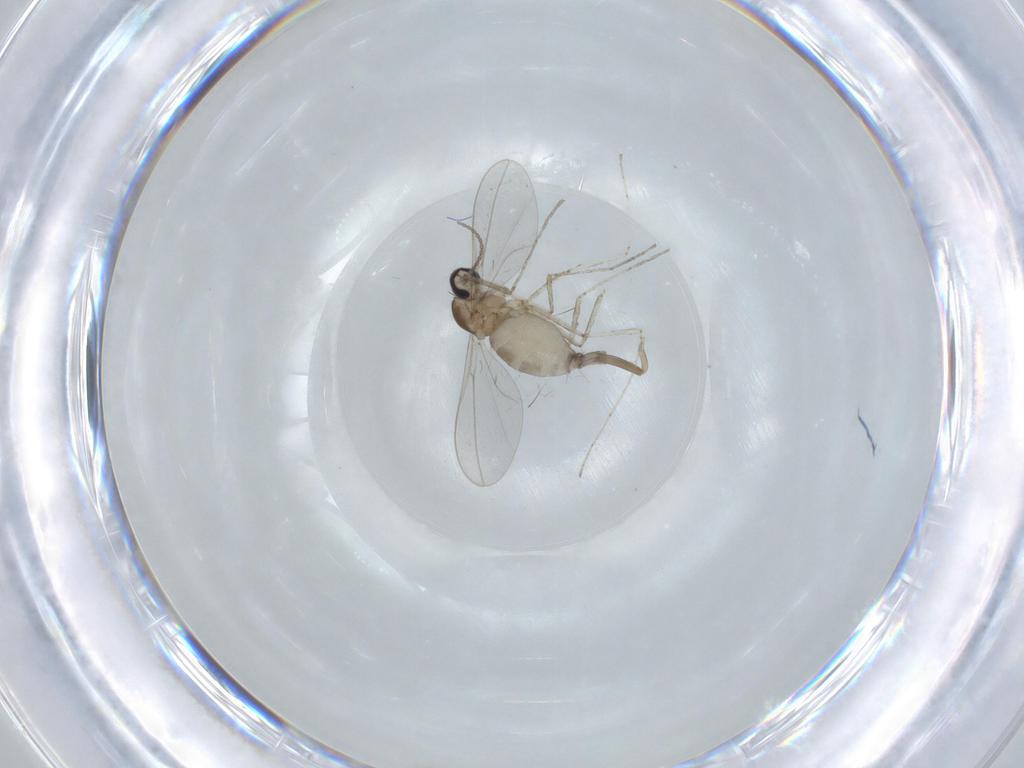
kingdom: Animalia
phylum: Arthropoda
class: Insecta
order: Diptera
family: Cecidomyiidae
